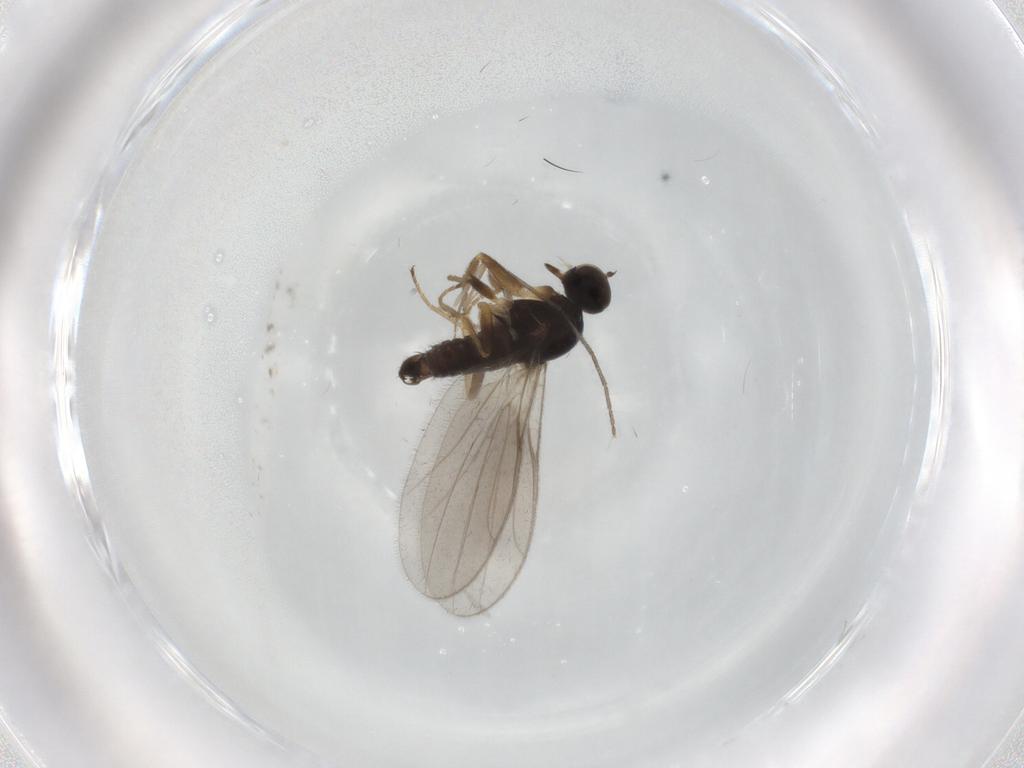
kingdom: Animalia
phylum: Arthropoda
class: Insecta
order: Diptera
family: Hybotidae
